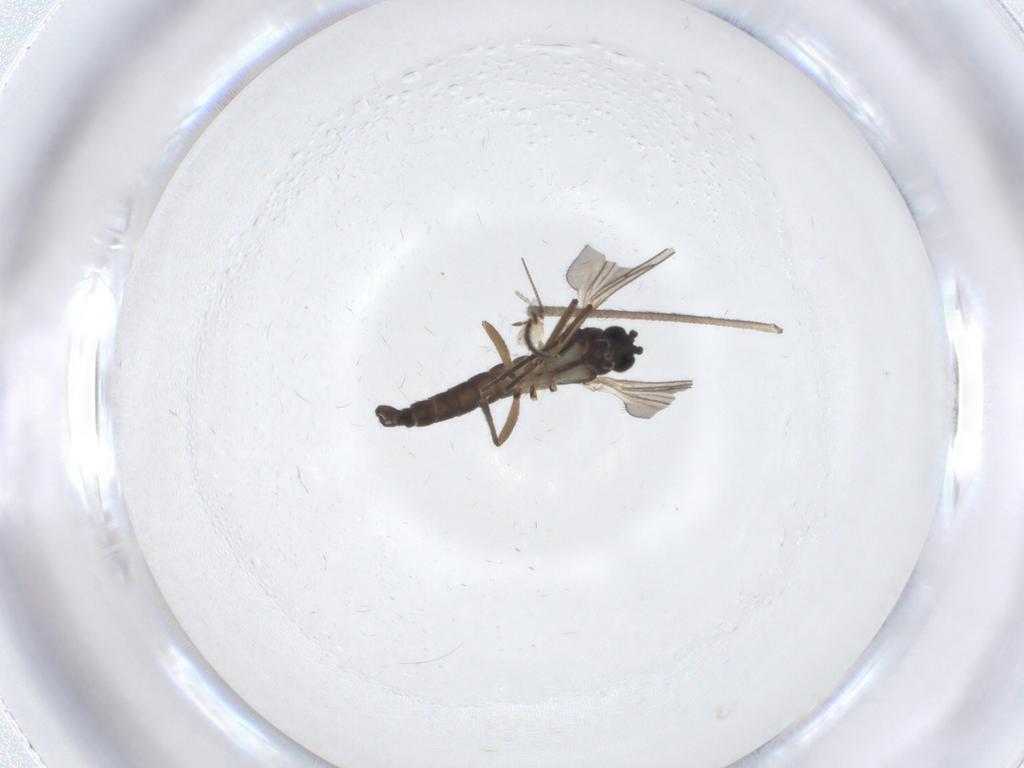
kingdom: Animalia
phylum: Arthropoda
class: Insecta
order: Diptera
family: Sciaridae
